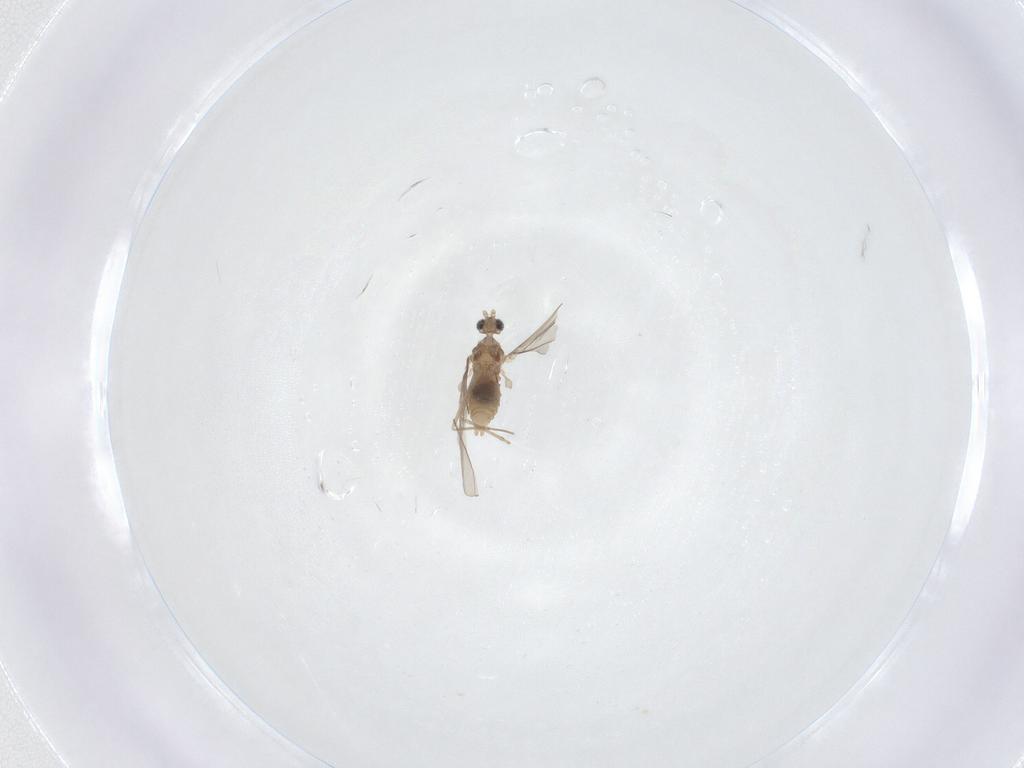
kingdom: Animalia
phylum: Arthropoda
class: Insecta
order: Diptera
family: Cecidomyiidae
